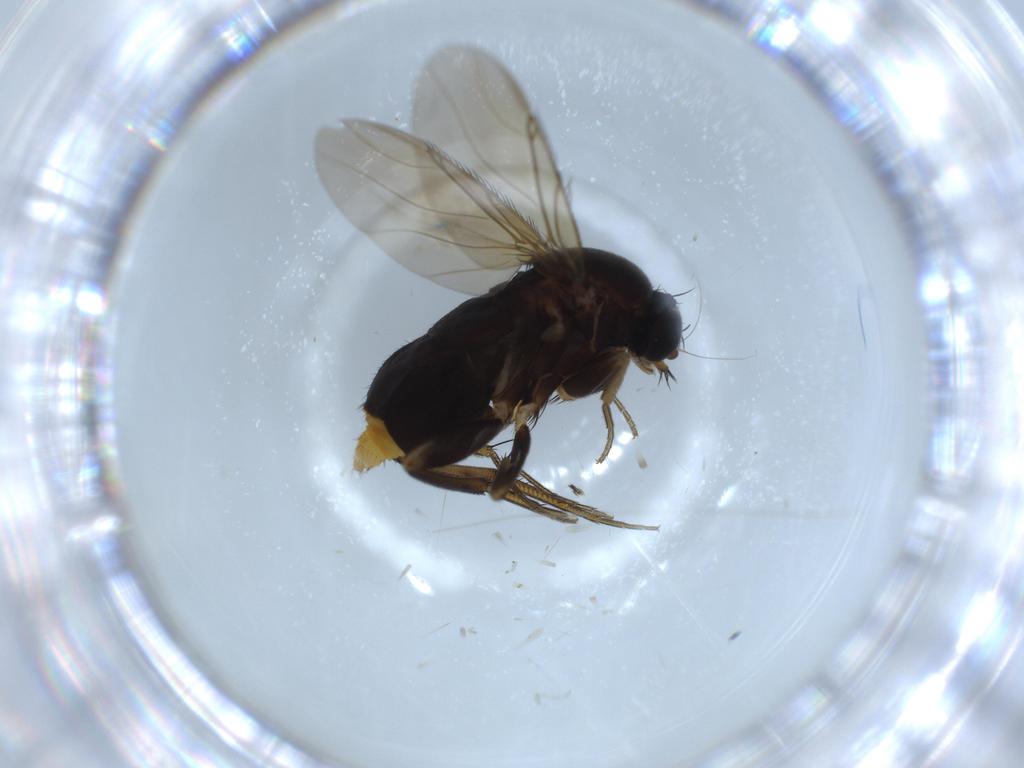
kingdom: Animalia
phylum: Arthropoda
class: Insecta
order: Diptera
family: Phoridae
